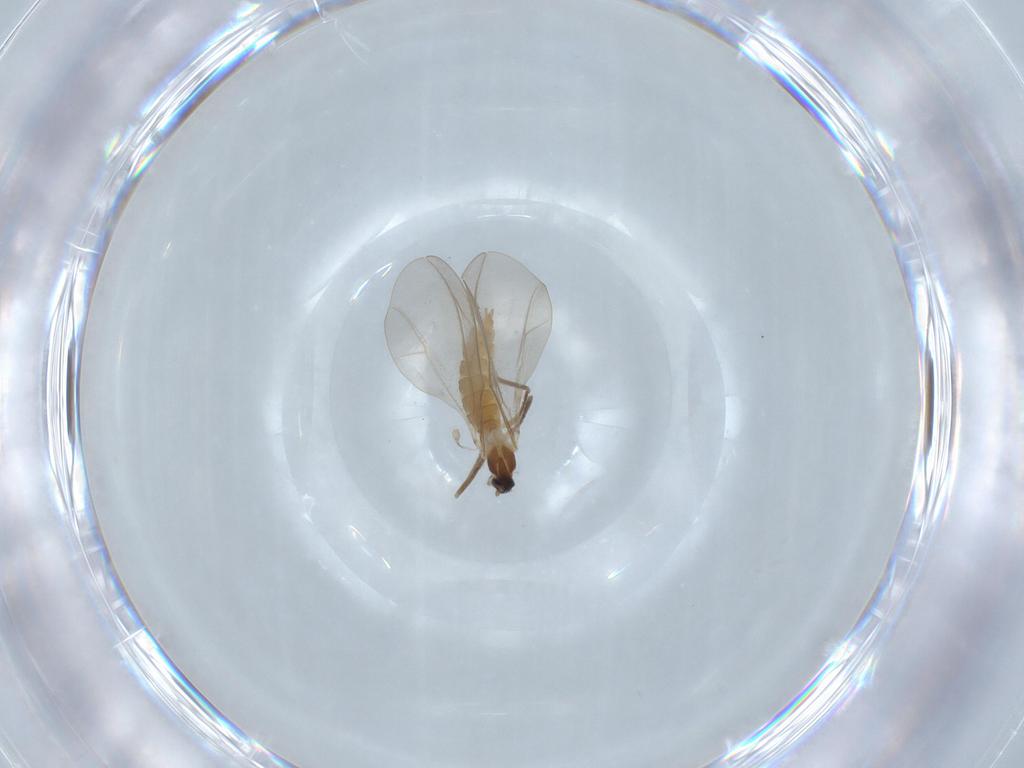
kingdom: Animalia
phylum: Arthropoda
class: Insecta
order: Diptera
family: Cecidomyiidae
